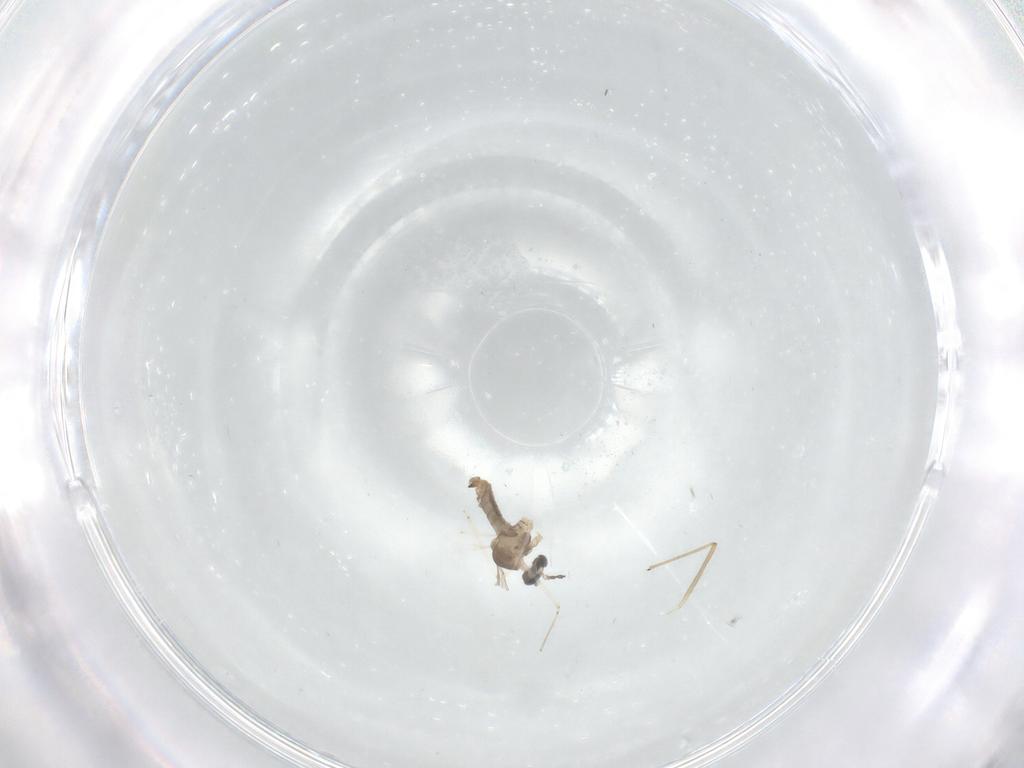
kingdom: Animalia
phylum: Arthropoda
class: Insecta
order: Diptera
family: Cecidomyiidae
